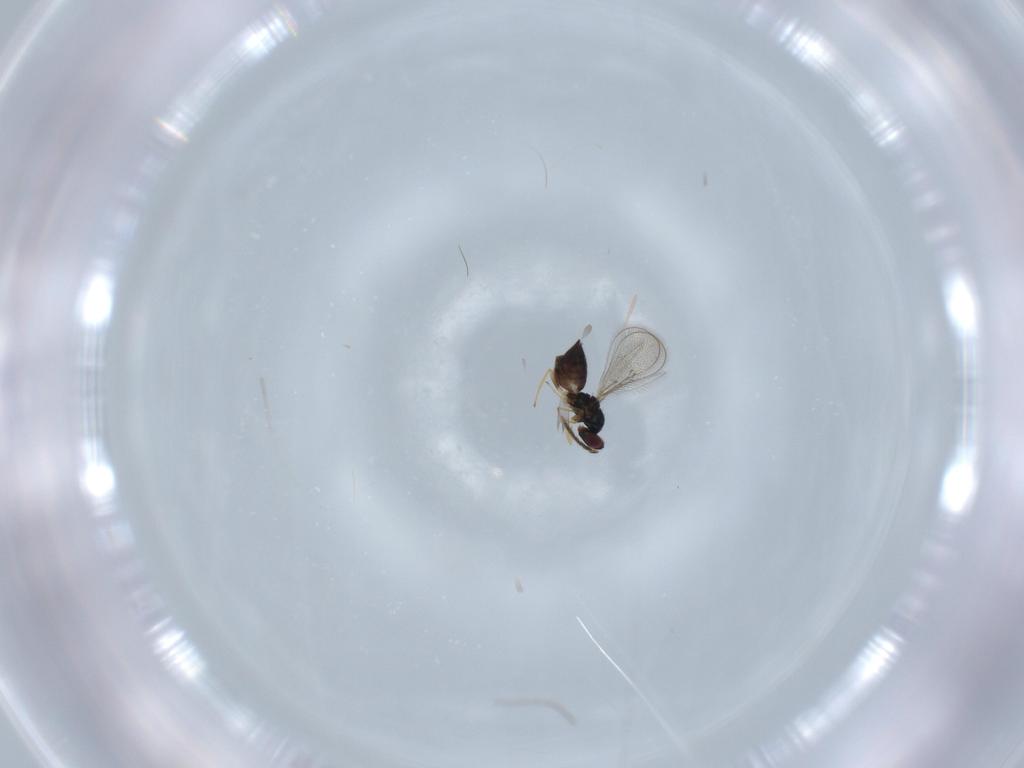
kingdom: Animalia
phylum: Arthropoda
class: Insecta
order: Hymenoptera
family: Eulophidae
